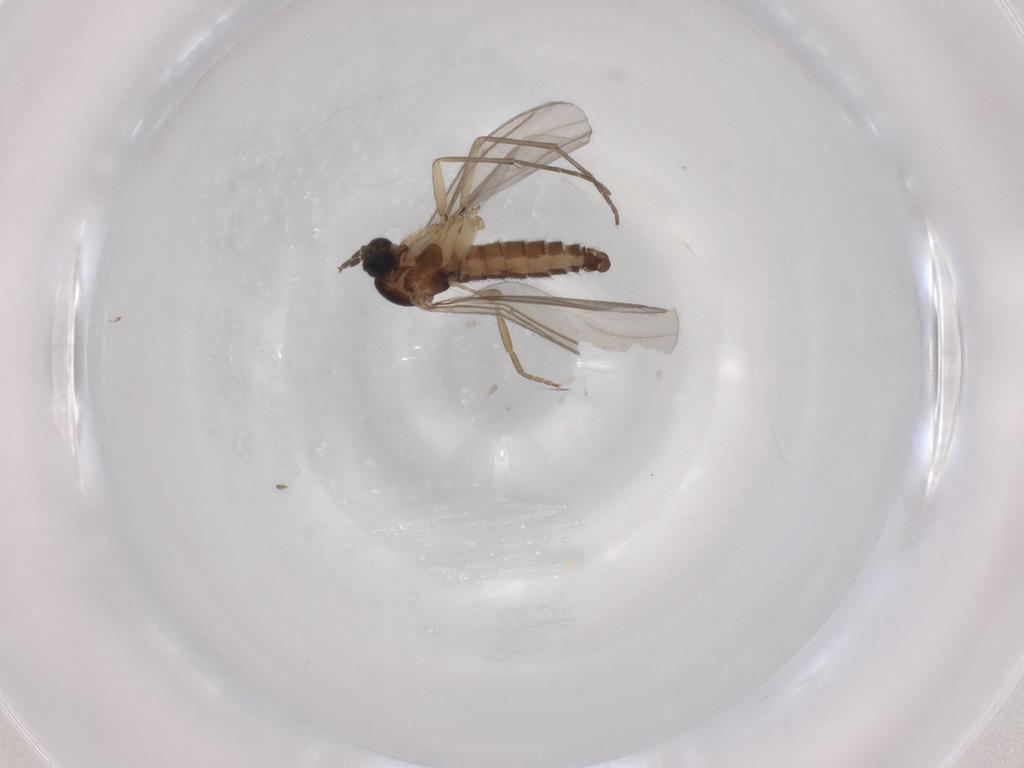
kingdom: Animalia
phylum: Arthropoda
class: Insecta
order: Diptera
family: Sciaridae
